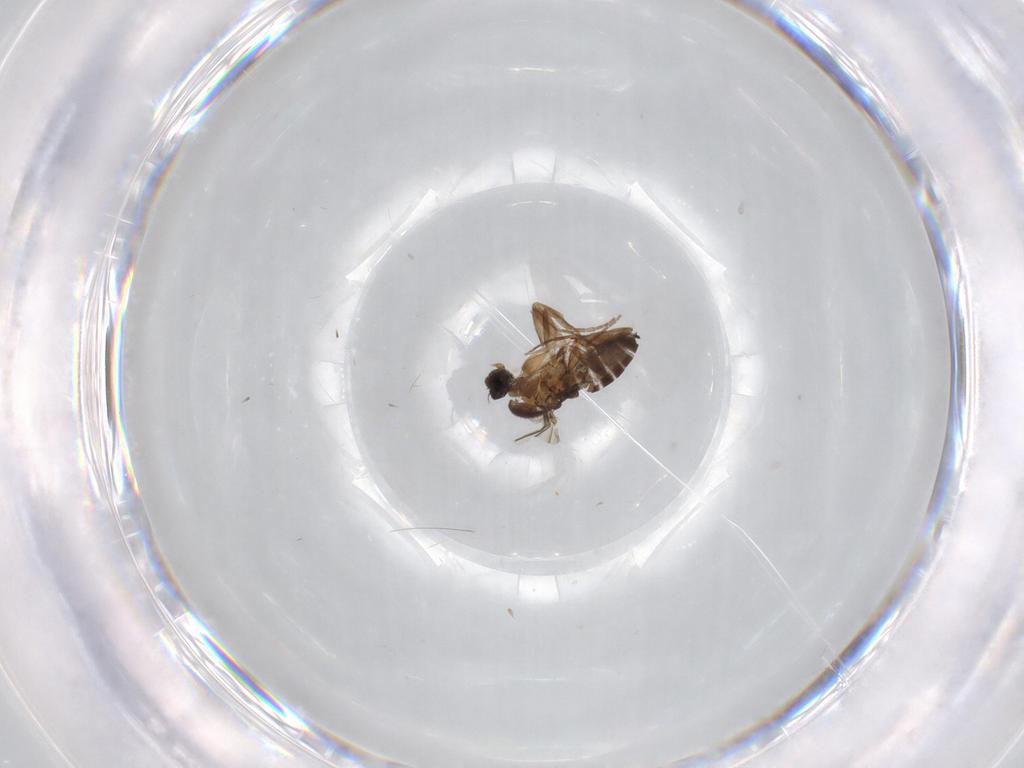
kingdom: Animalia
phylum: Arthropoda
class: Insecta
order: Diptera
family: Phoridae
